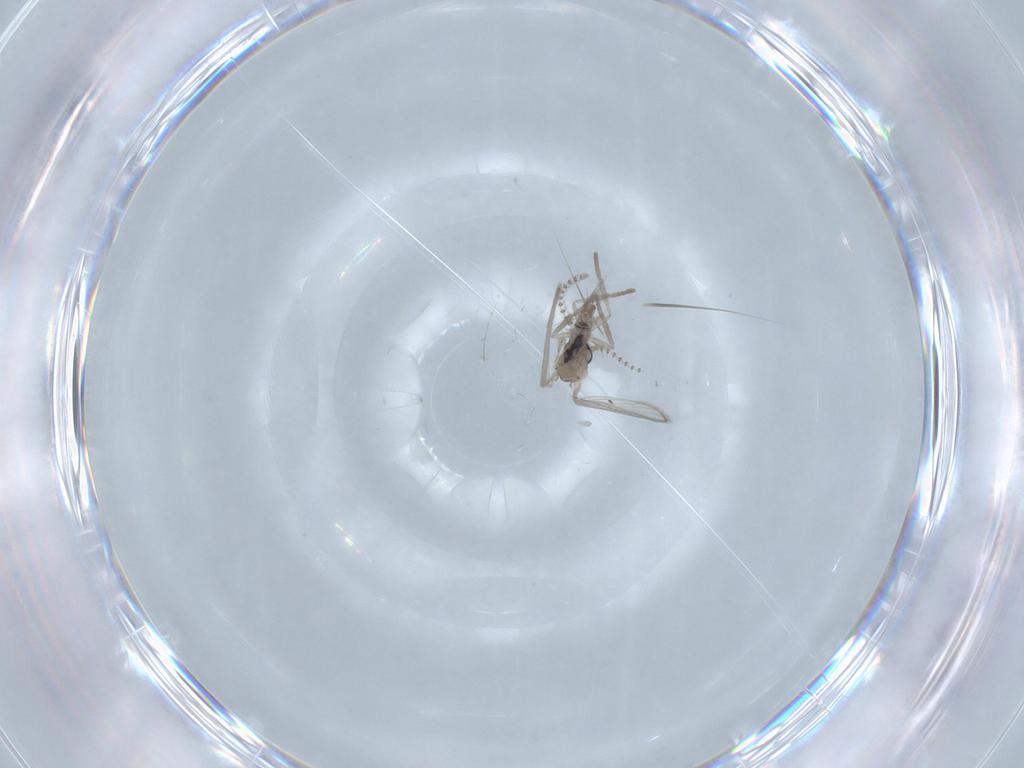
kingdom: Animalia
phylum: Arthropoda
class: Insecta
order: Diptera
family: Psychodidae
